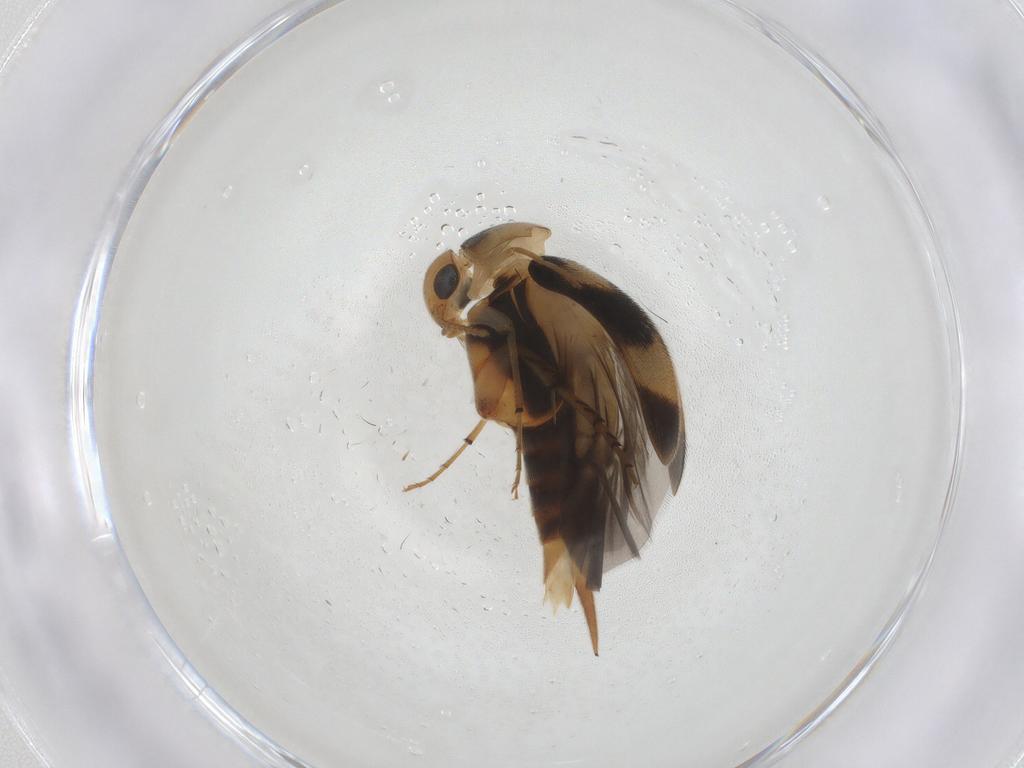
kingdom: Animalia
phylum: Arthropoda
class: Insecta
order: Coleoptera
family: Mordellidae
